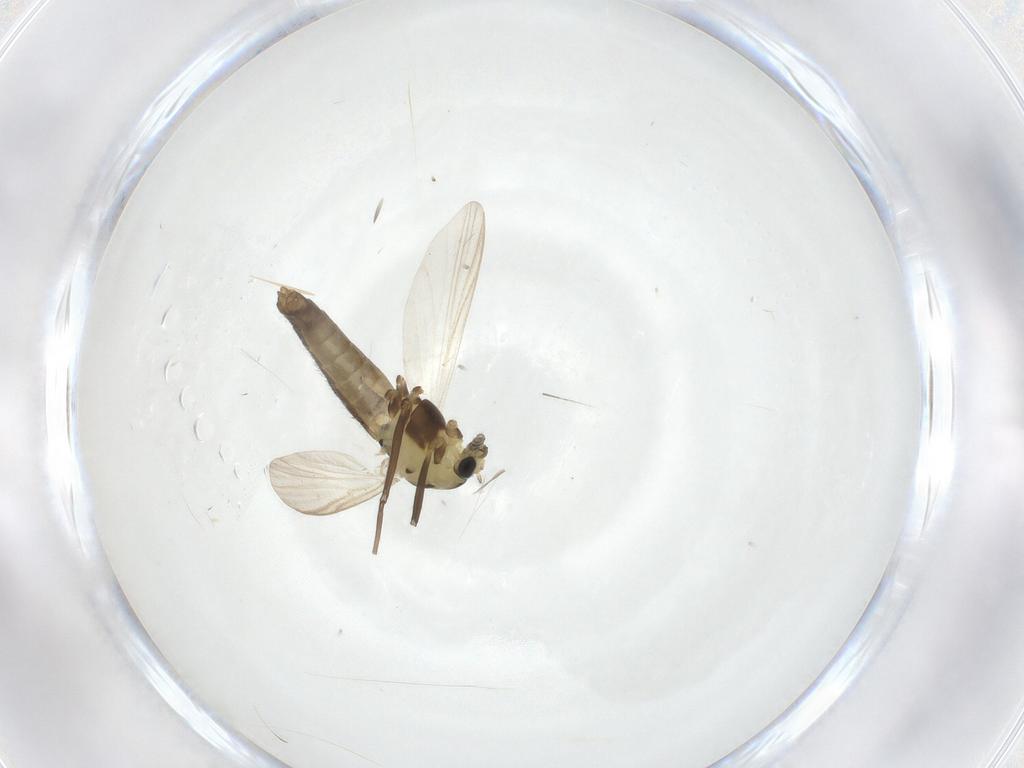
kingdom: Animalia
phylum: Arthropoda
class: Insecta
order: Diptera
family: Chironomidae
